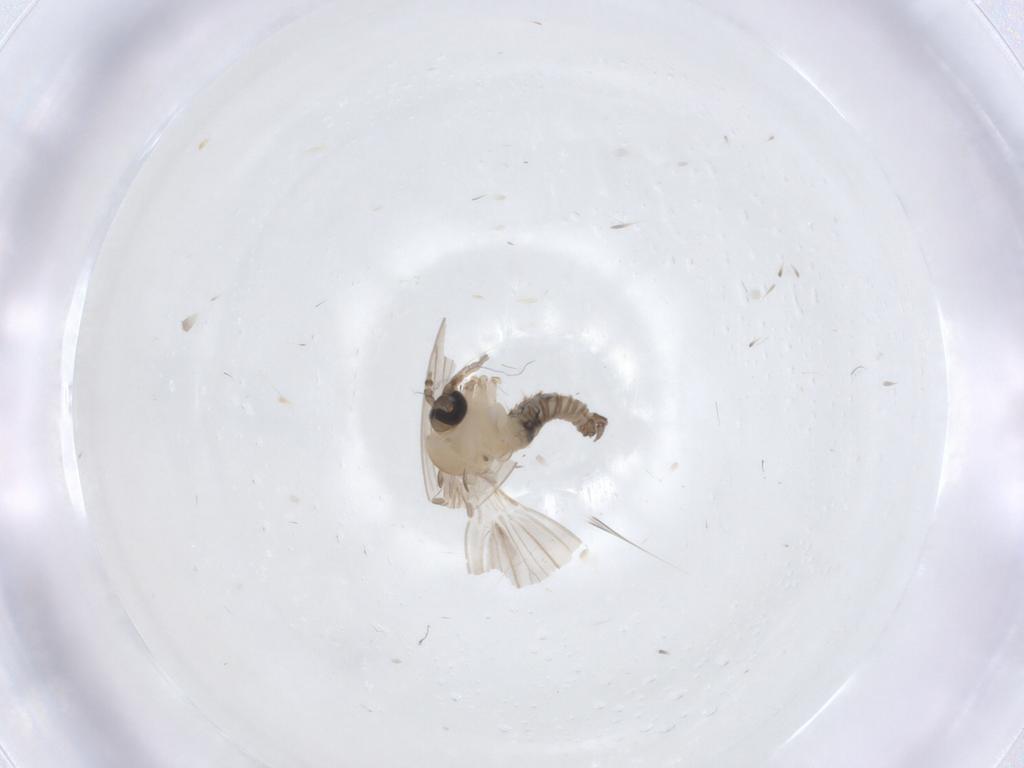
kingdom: Animalia
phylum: Arthropoda
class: Insecta
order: Diptera
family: Psychodidae
